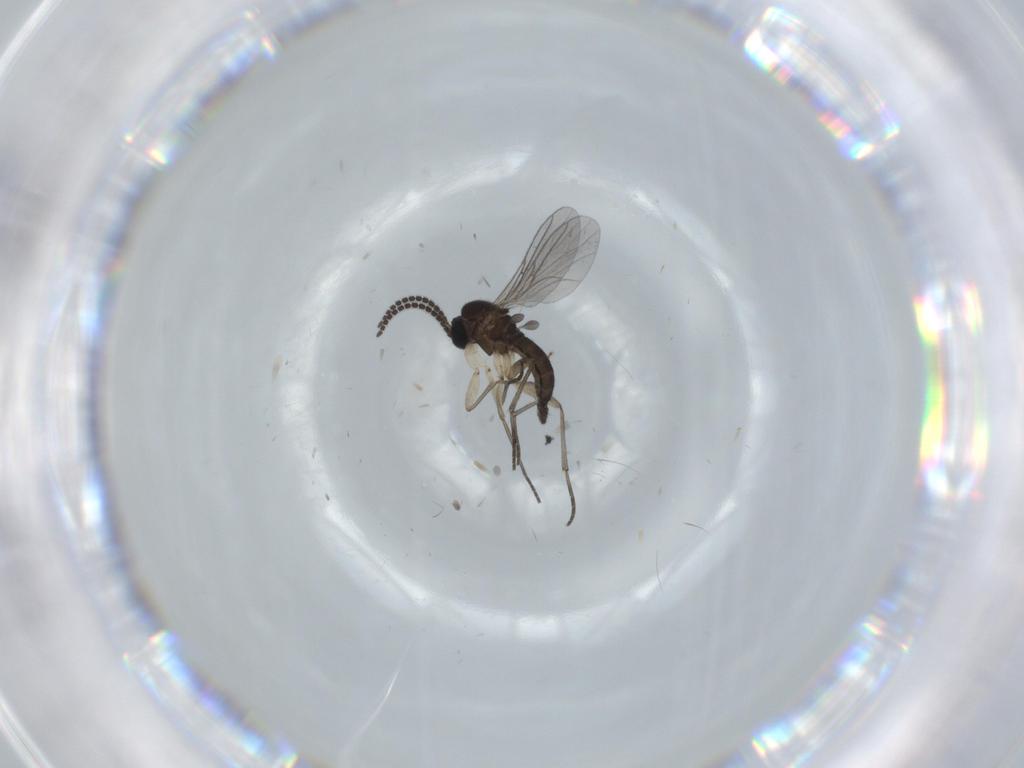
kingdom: Animalia
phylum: Arthropoda
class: Insecta
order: Diptera
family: Sciaridae
